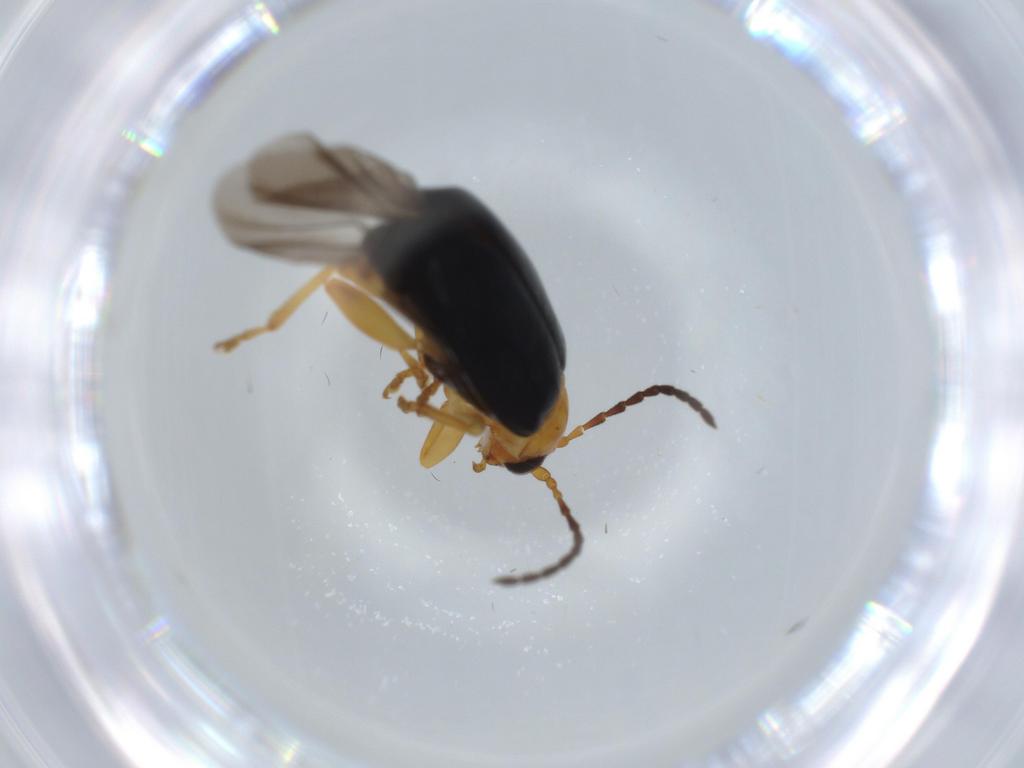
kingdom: Animalia
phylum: Arthropoda
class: Insecta
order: Coleoptera
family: Chrysomelidae
